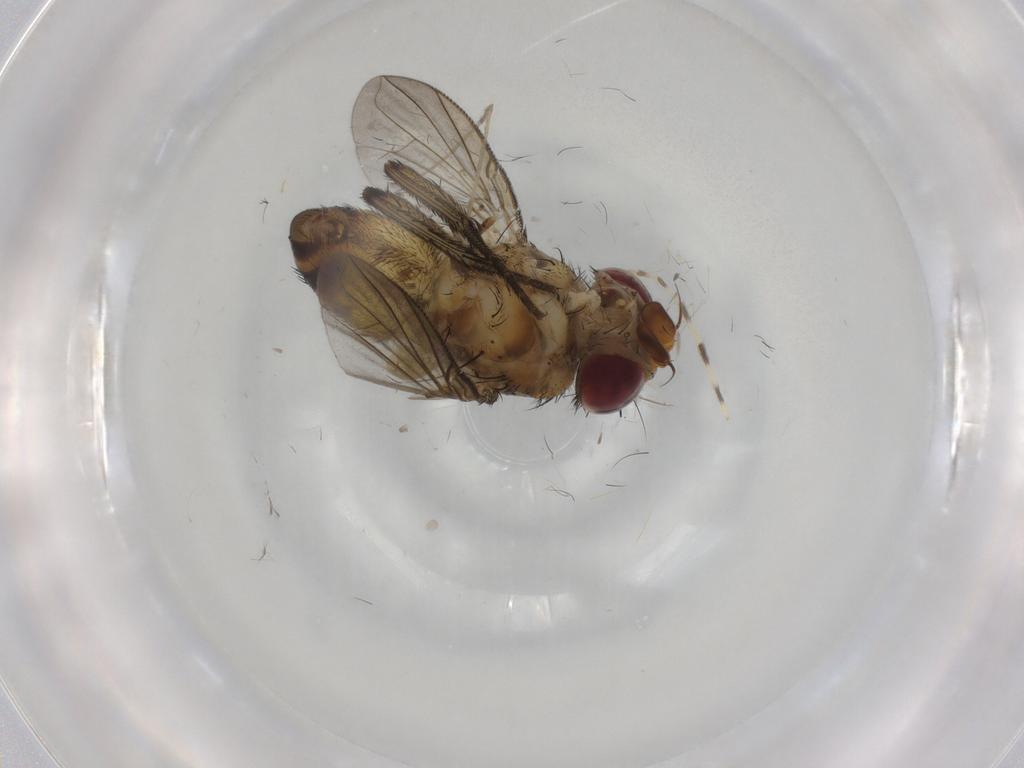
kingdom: Animalia
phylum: Arthropoda
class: Insecta
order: Diptera
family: Tachinidae
